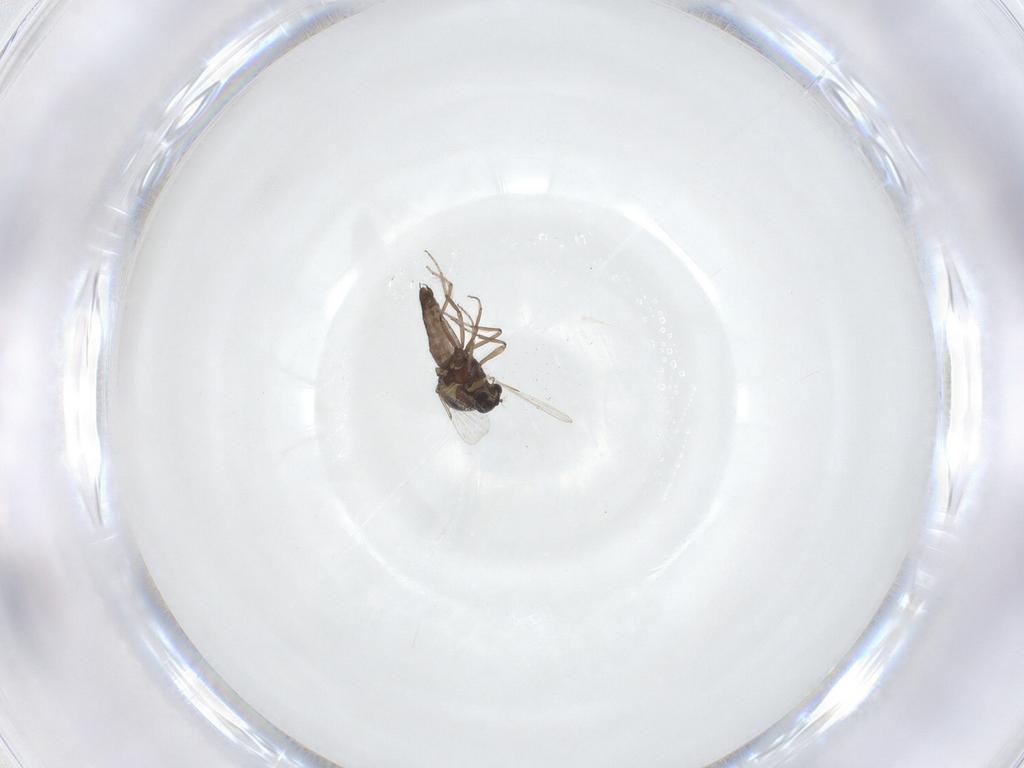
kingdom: Animalia
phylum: Arthropoda
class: Insecta
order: Diptera
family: Ceratopogonidae
